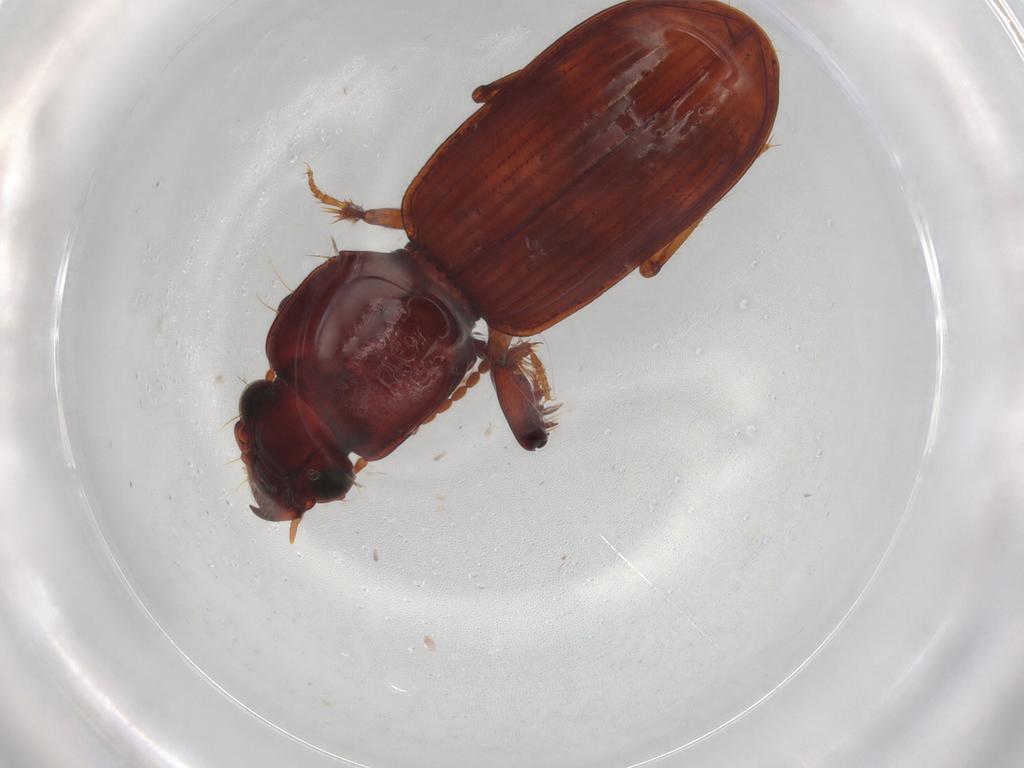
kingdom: Animalia
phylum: Arthropoda
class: Insecta
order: Coleoptera
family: Carabidae
